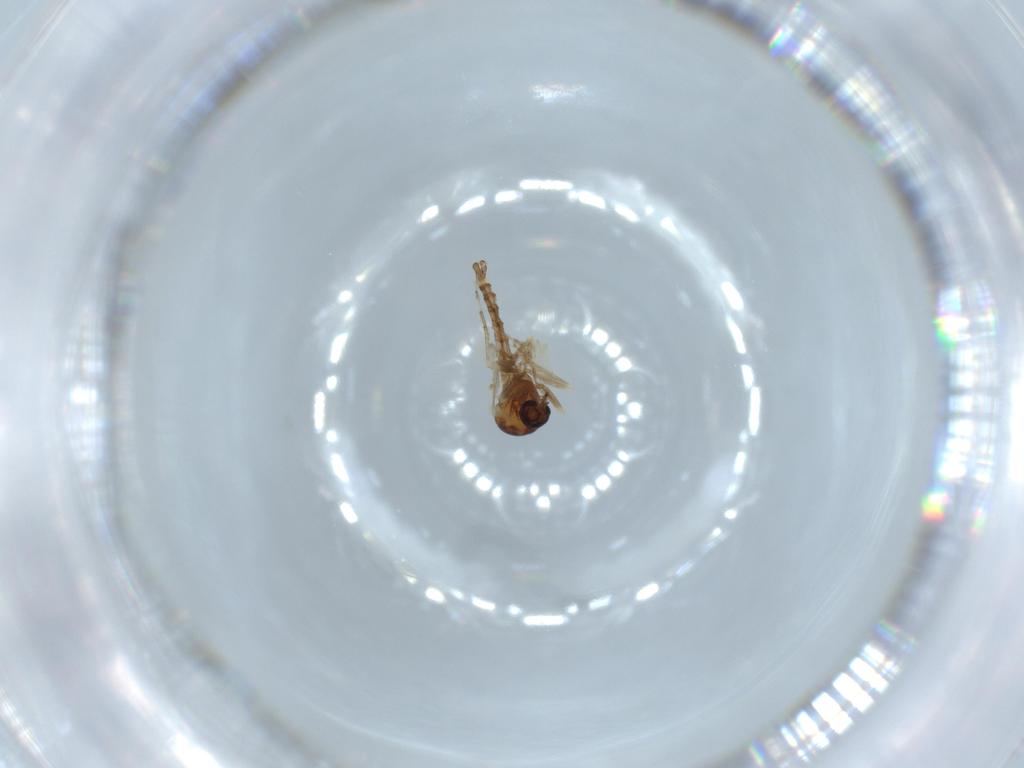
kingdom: Animalia
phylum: Arthropoda
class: Insecta
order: Diptera
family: Ceratopogonidae
